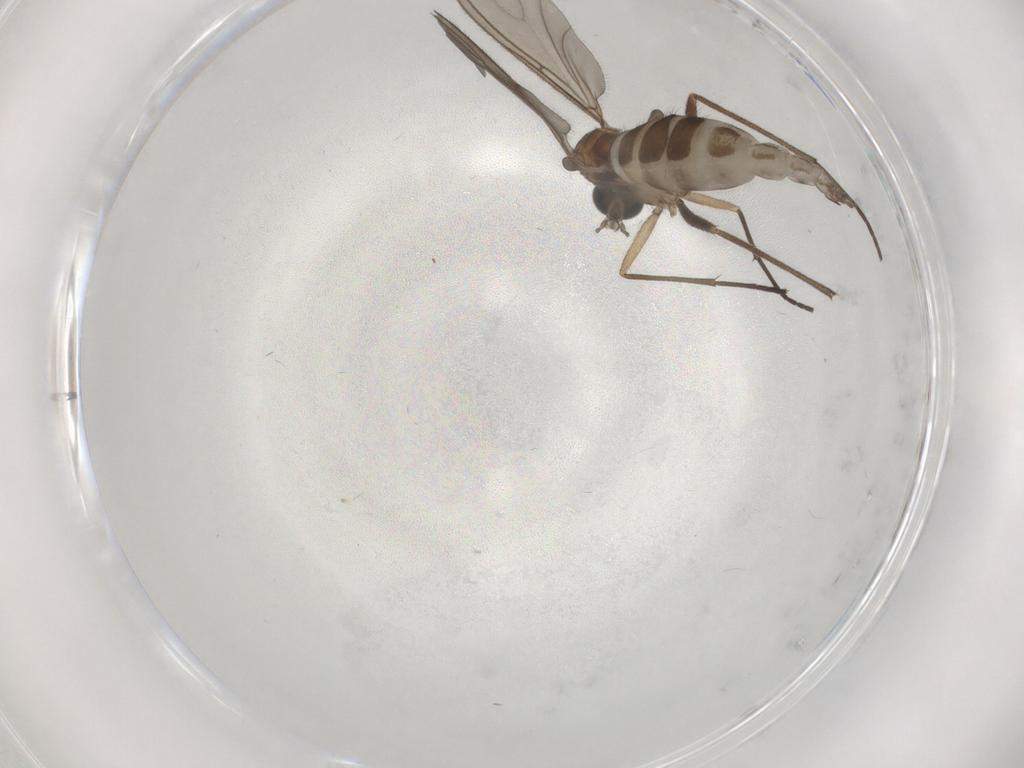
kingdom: Animalia
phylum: Arthropoda
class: Insecta
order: Diptera
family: Sciaridae
